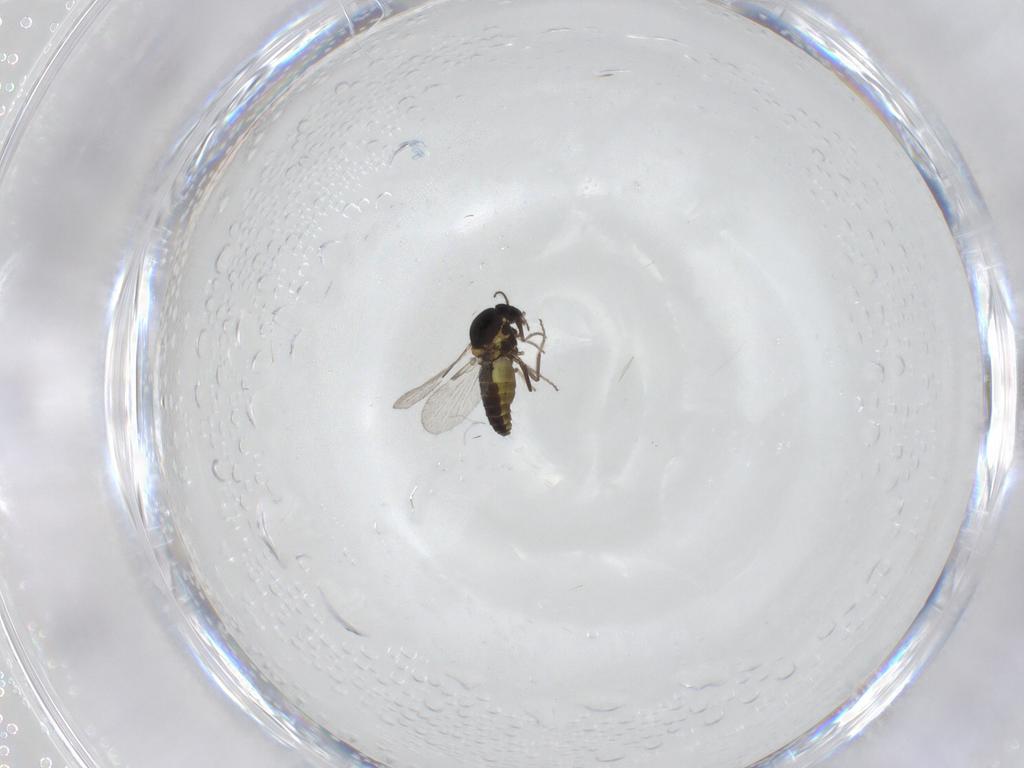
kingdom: Animalia
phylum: Arthropoda
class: Insecta
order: Diptera
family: Ceratopogonidae
